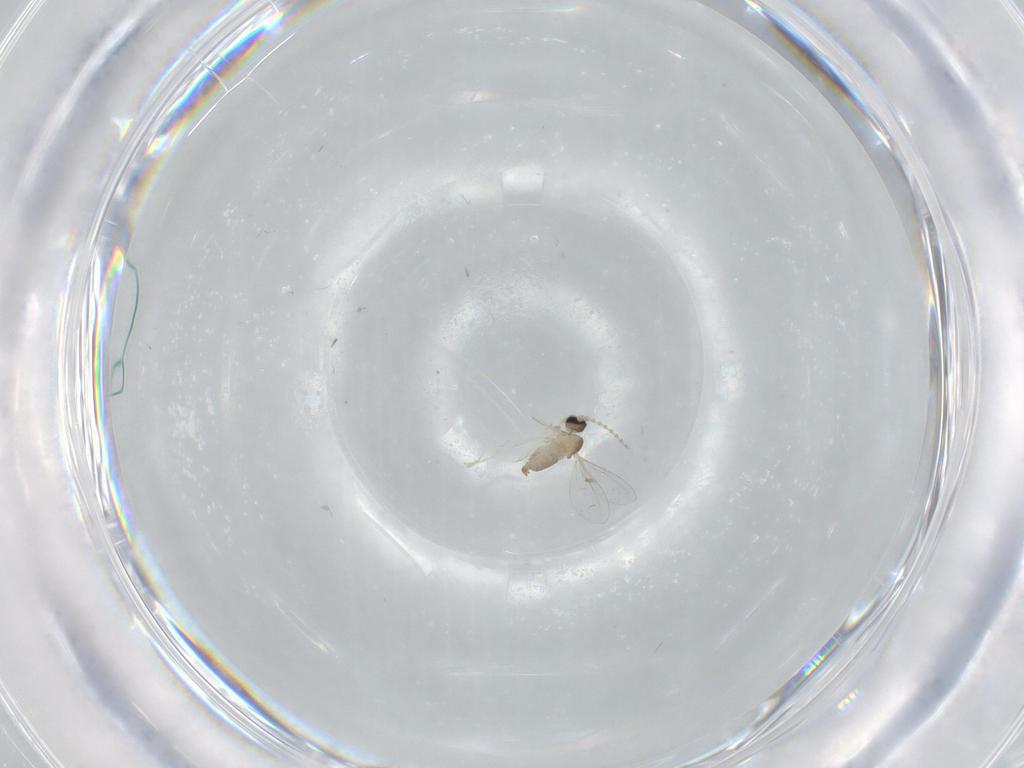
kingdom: Animalia
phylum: Arthropoda
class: Insecta
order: Diptera
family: Cecidomyiidae
